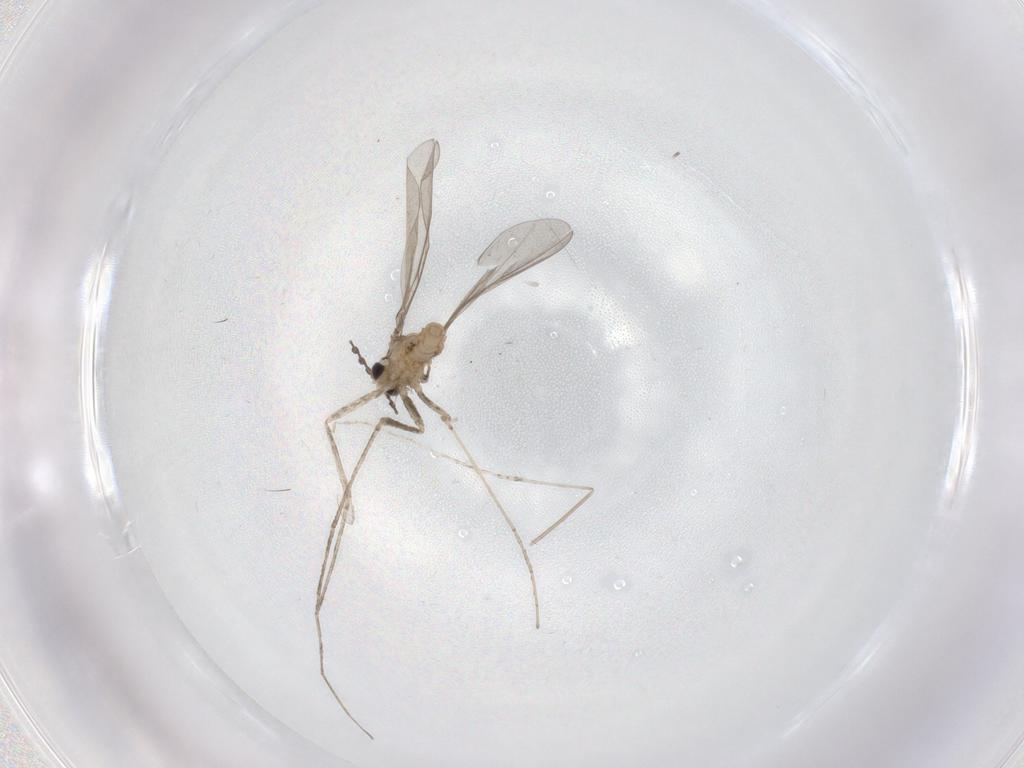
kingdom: Animalia
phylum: Arthropoda
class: Insecta
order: Diptera
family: Cecidomyiidae
